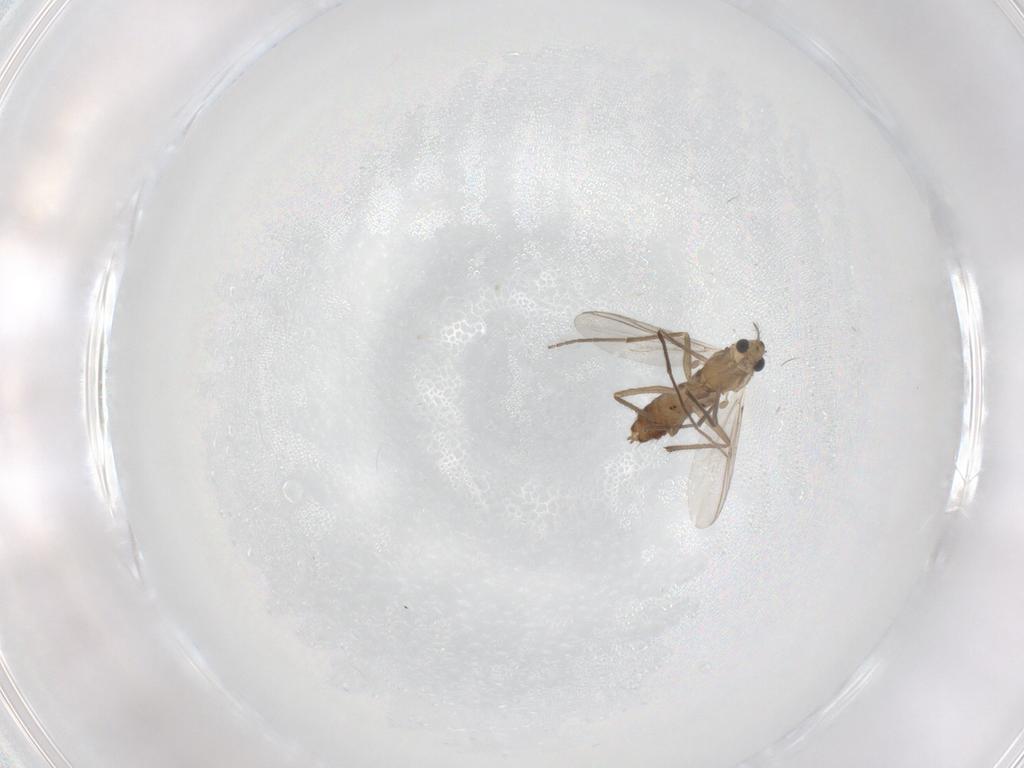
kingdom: Animalia
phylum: Arthropoda
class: Insecta
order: Diptera
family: Chironomidae
